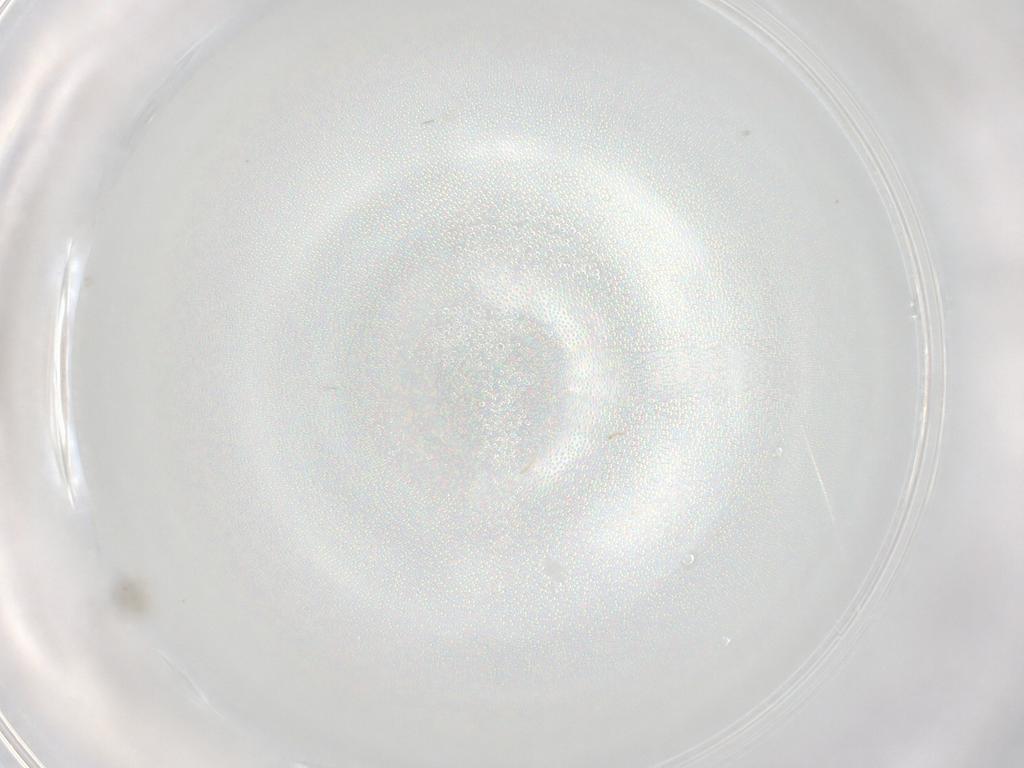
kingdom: Animalia
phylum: Arthropoda
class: Insecta
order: Diptera
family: Cecidomyiidae
